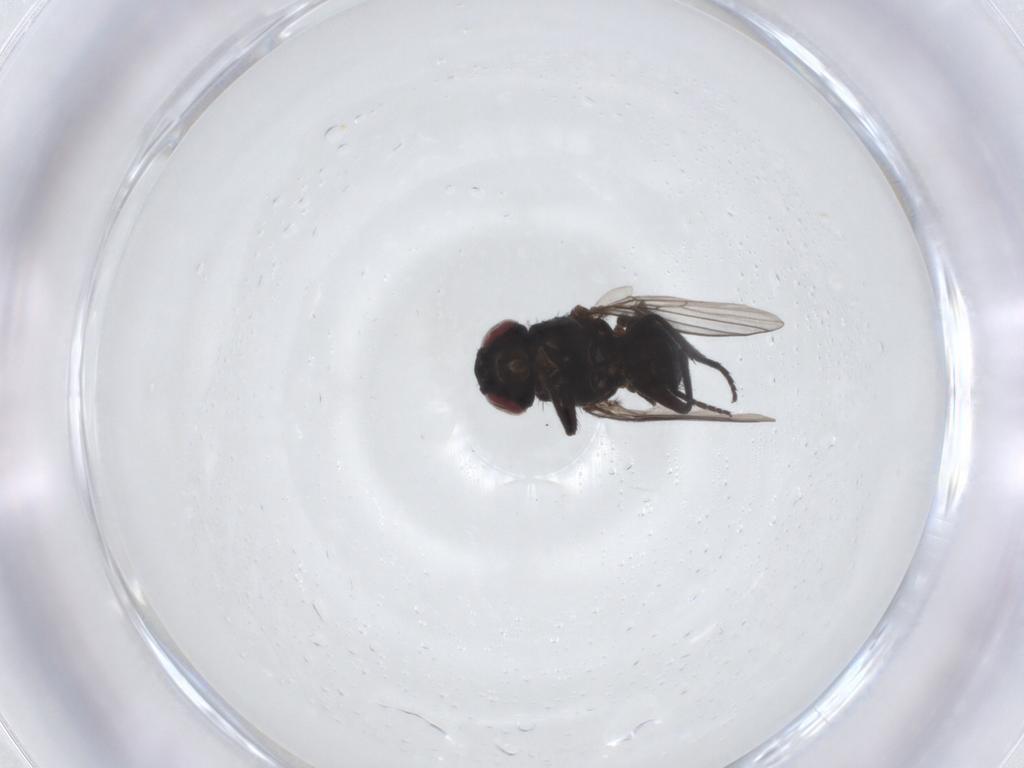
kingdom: Animalia
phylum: Arthropoda
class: Insecta
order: Diptera
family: Agromyzidae
